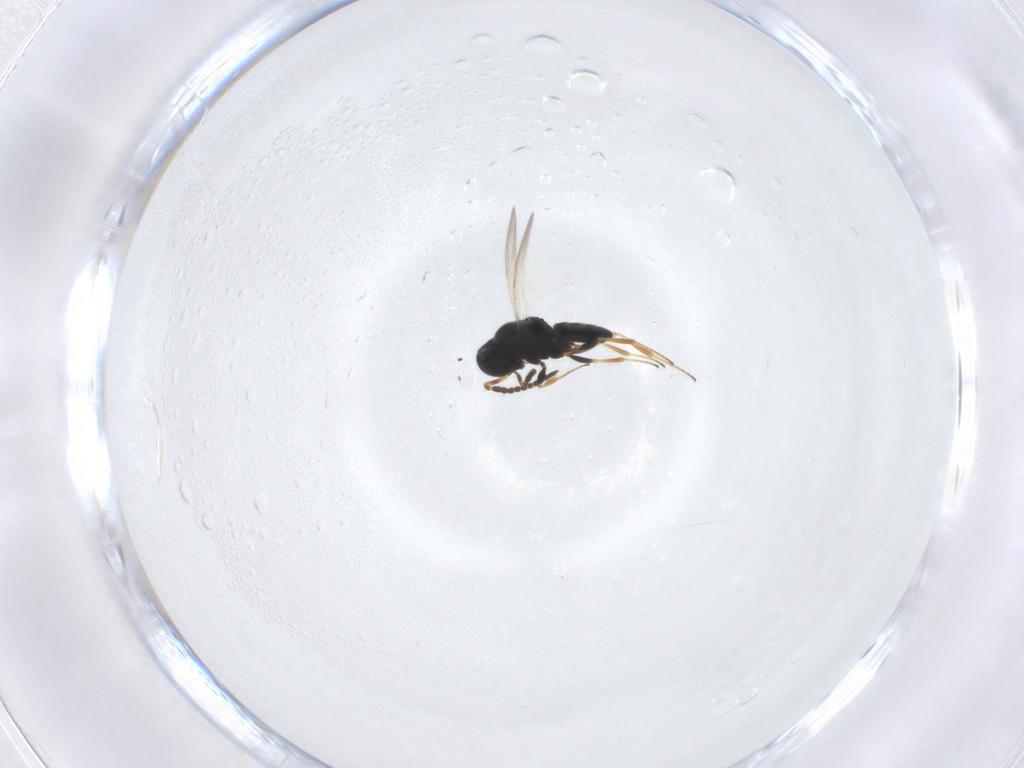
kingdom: Animalia
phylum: Arthropoda
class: Insecta
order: Hymenoptera
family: Scelionidae
